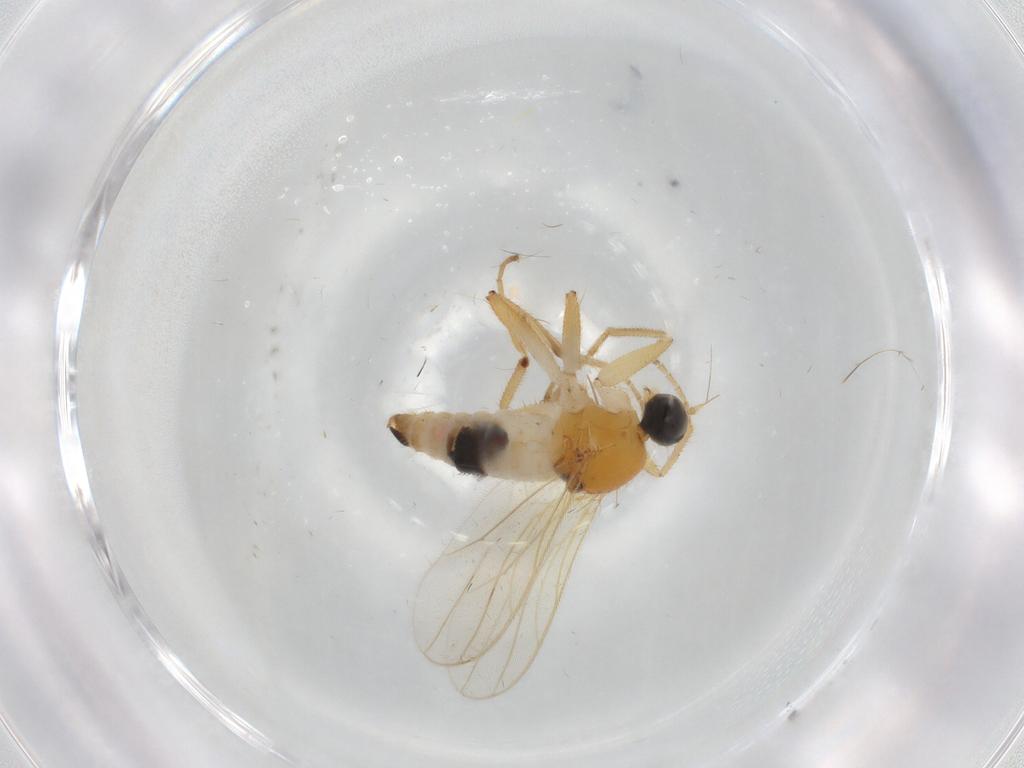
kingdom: Animalia
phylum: Arthropoda
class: Insecta
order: Diptera
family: Hybotidae
